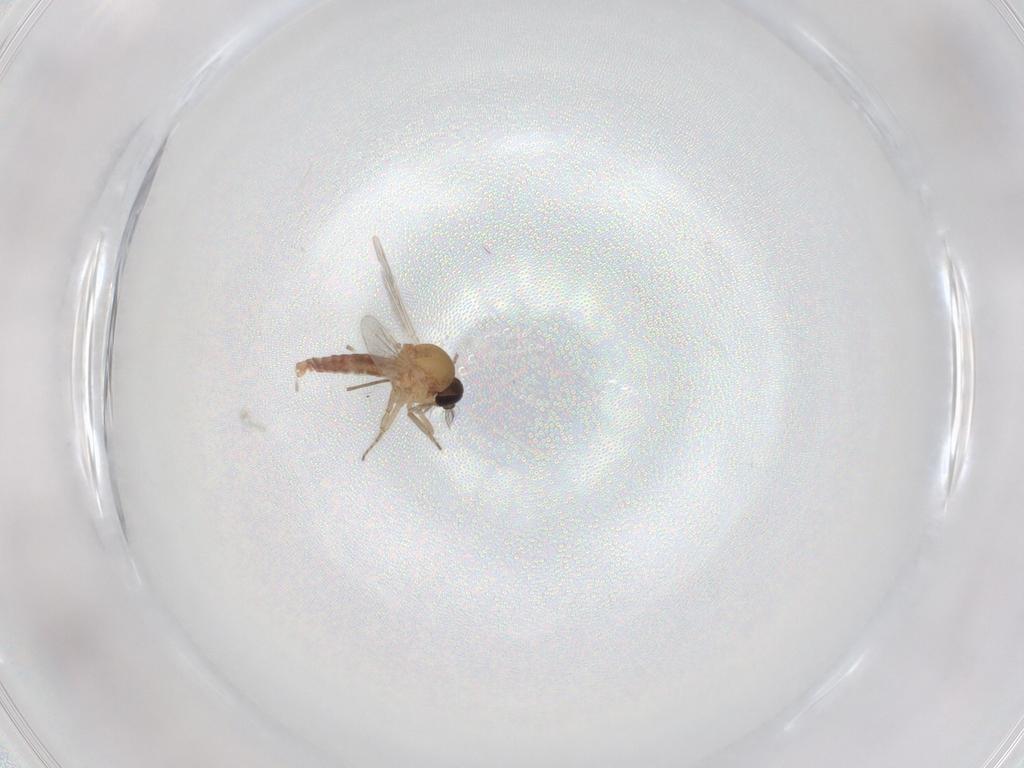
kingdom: Animalia
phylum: Arthropoda
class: Insecta
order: Diptera
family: Ceratopogonidae
